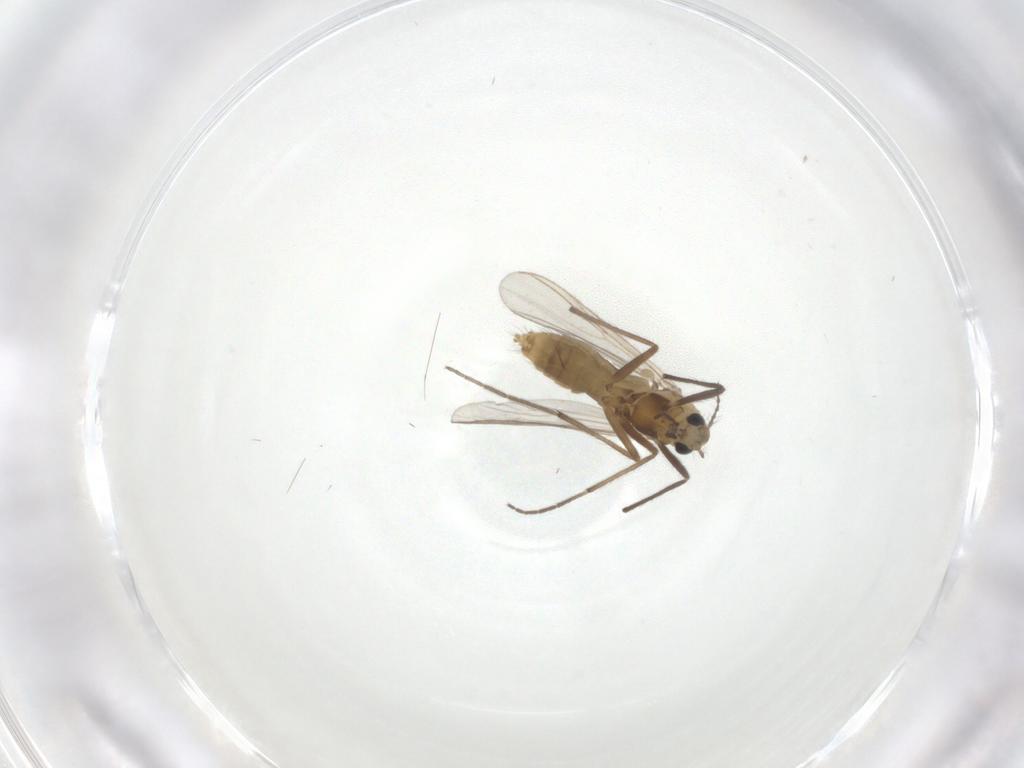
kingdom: Animalia
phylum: Arthropoda
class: Insecta
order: Diptera
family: Chironomidae
